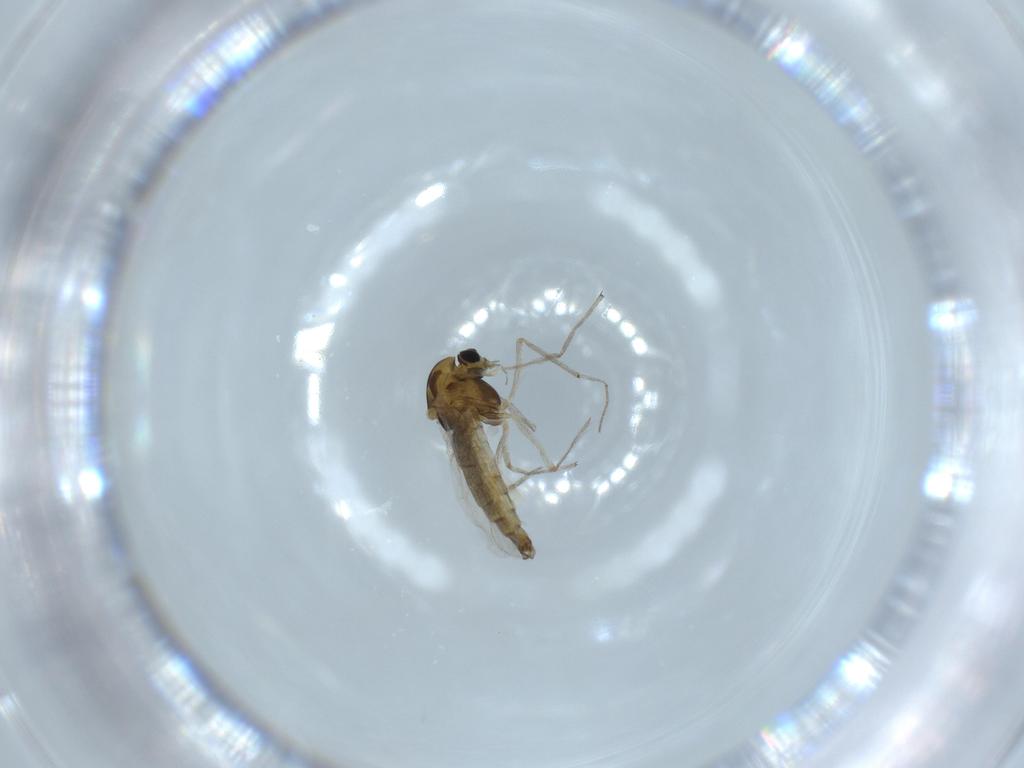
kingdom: Animalia
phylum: Arthropoda
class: Insecta
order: Diptera
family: Chironomidae
